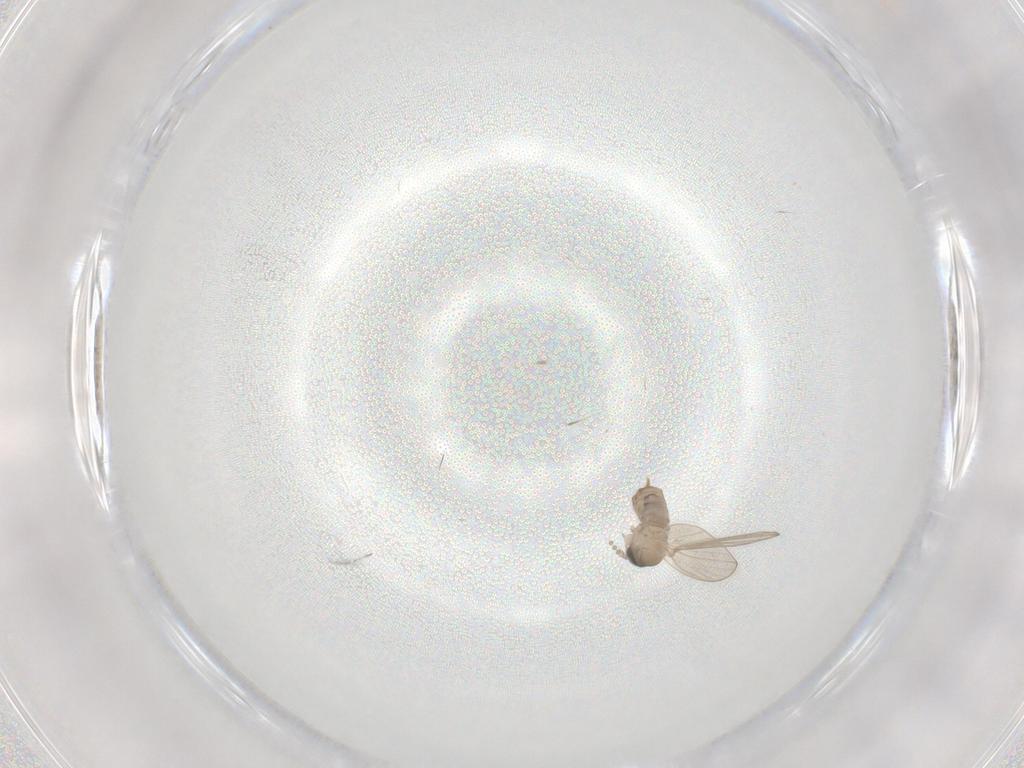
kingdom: Animalia
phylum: Arthropoda
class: Insecta
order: Diptera
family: Psychodidae
